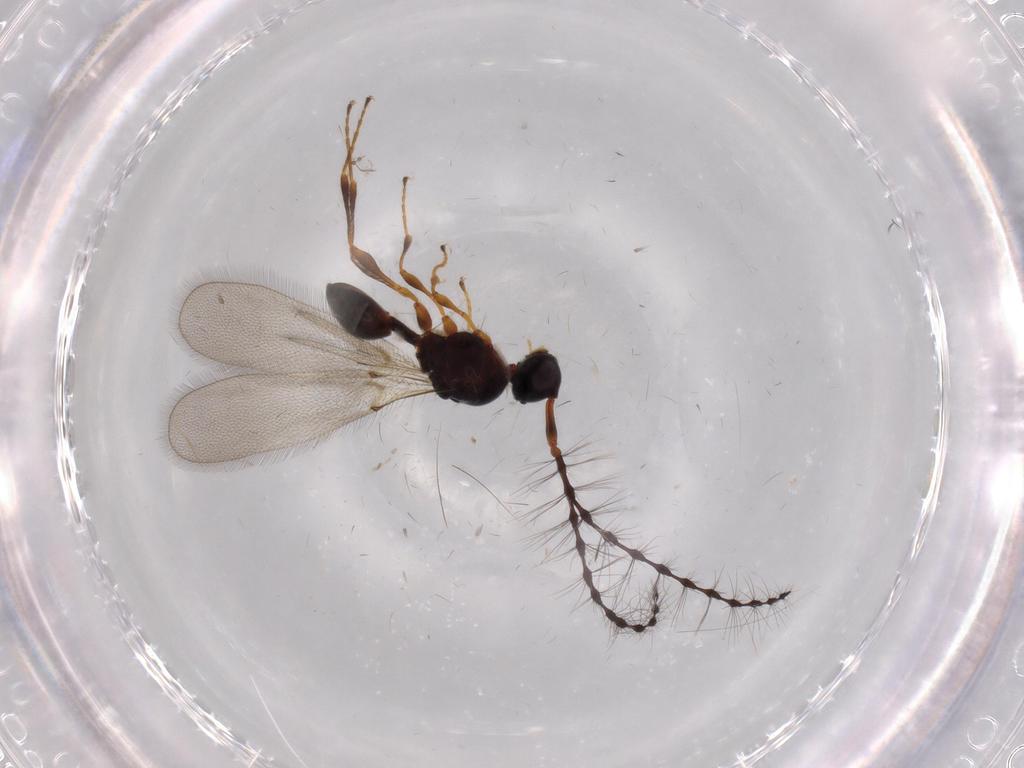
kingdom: Animalia
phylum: Arthropoda
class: Insecta
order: Hymenoptera
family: Diapriidae
